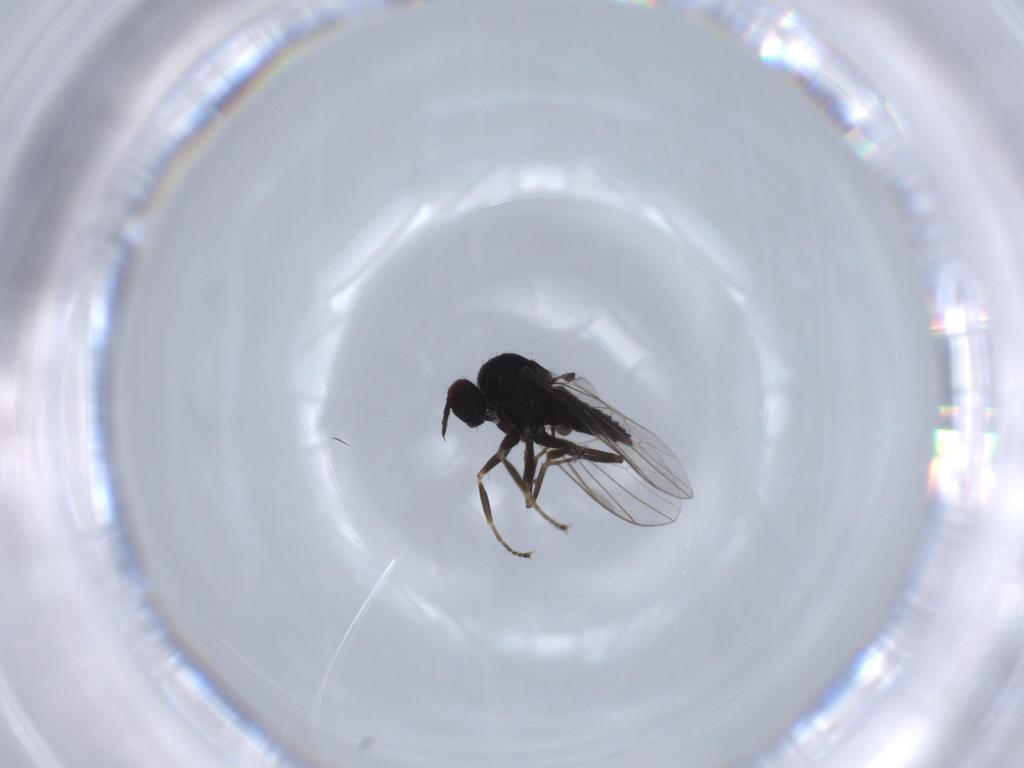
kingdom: Animalia
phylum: Arthropoda
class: Insecta
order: Diptera
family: Hybotidae
